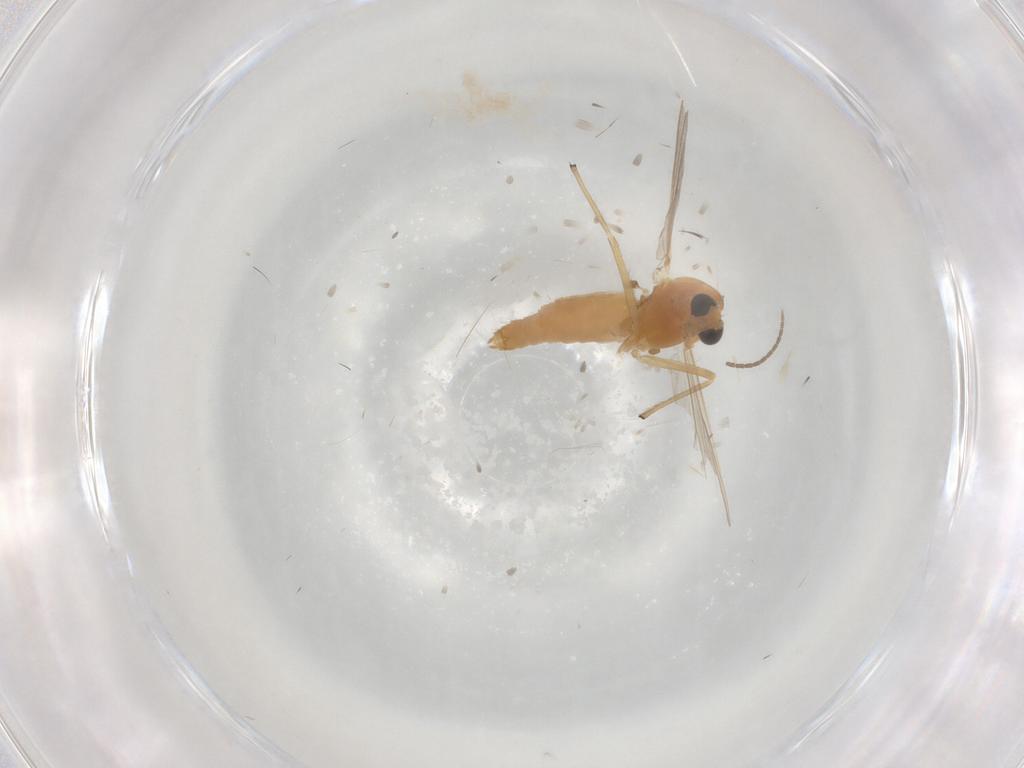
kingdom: Animalia
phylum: Arthropoda
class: Insecta
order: Diptera
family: Chironomidae
